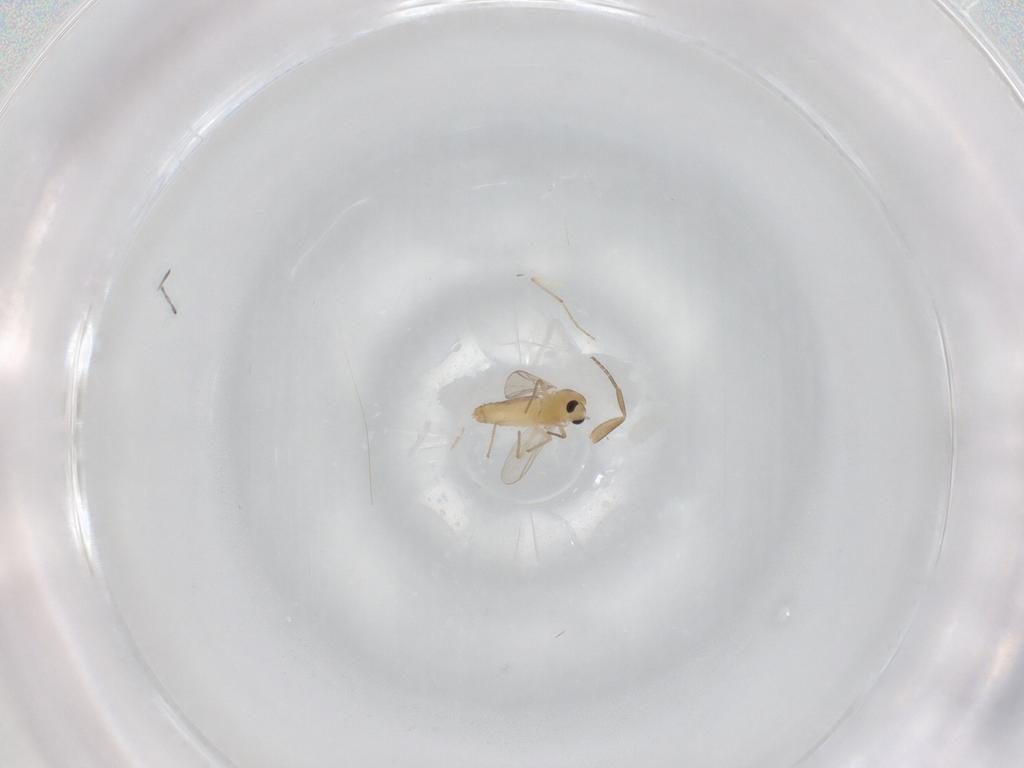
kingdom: Animalia
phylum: Arthropoda
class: Insecta
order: Diptera
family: Phoridae
